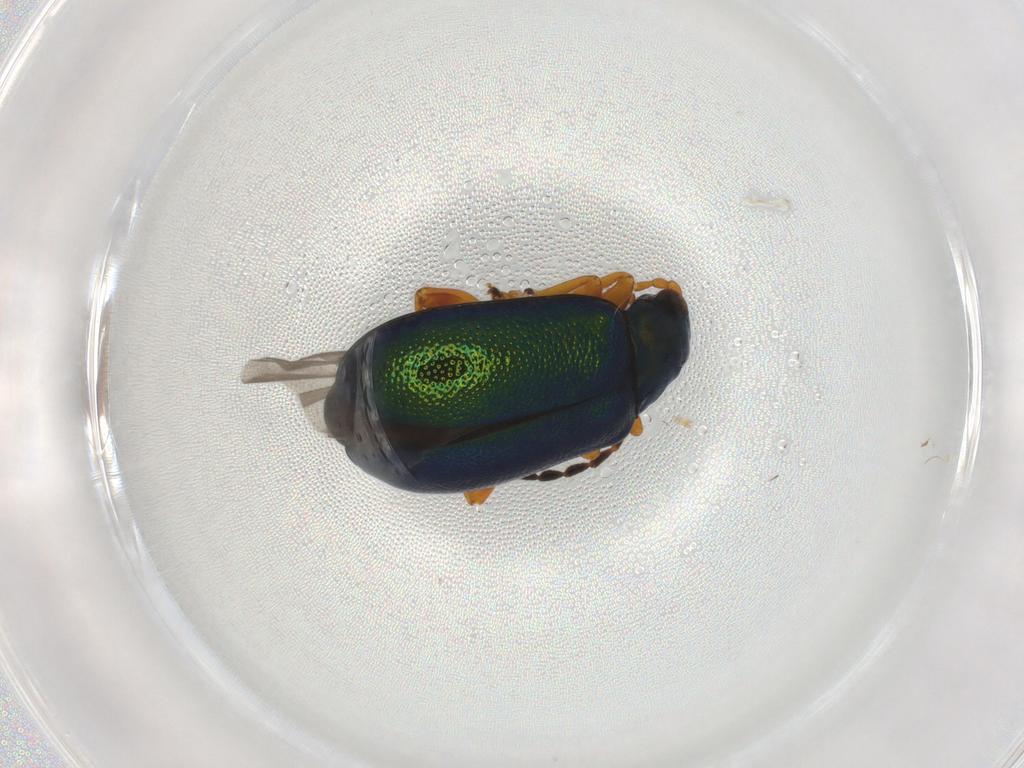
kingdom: Animalia
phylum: Arthropoda
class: Insecta
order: Coleoptera
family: Chrysomelidae
